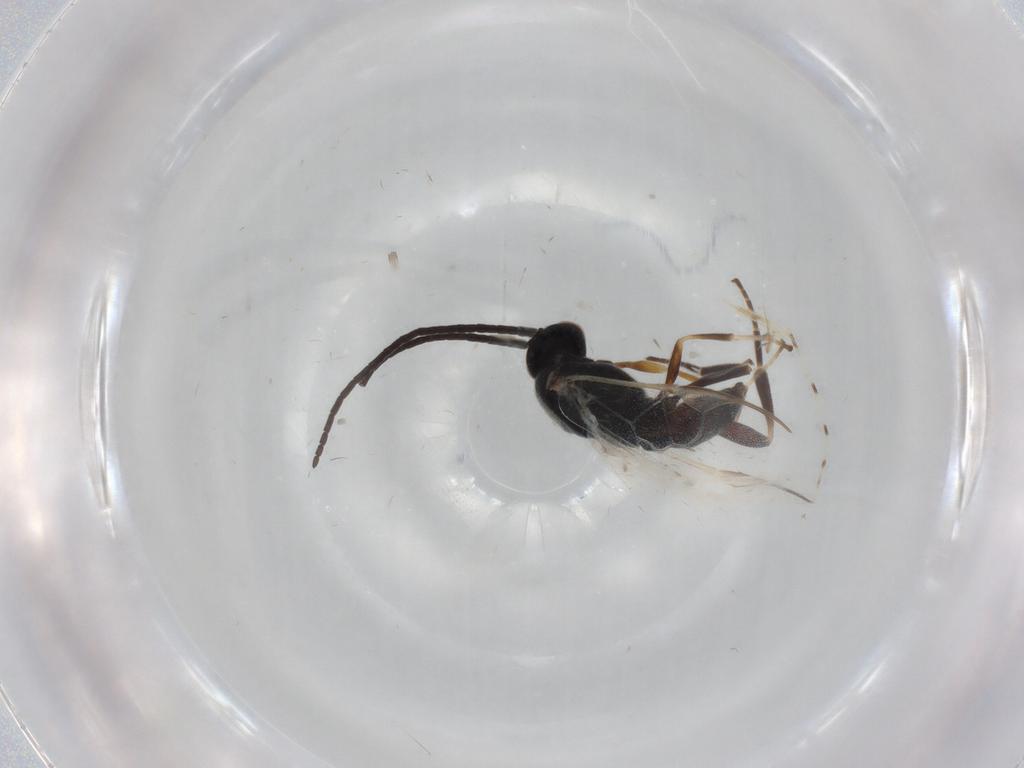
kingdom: Animalia
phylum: Arthropoda
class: Insecta
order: Hymenoptera
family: Braconidae
